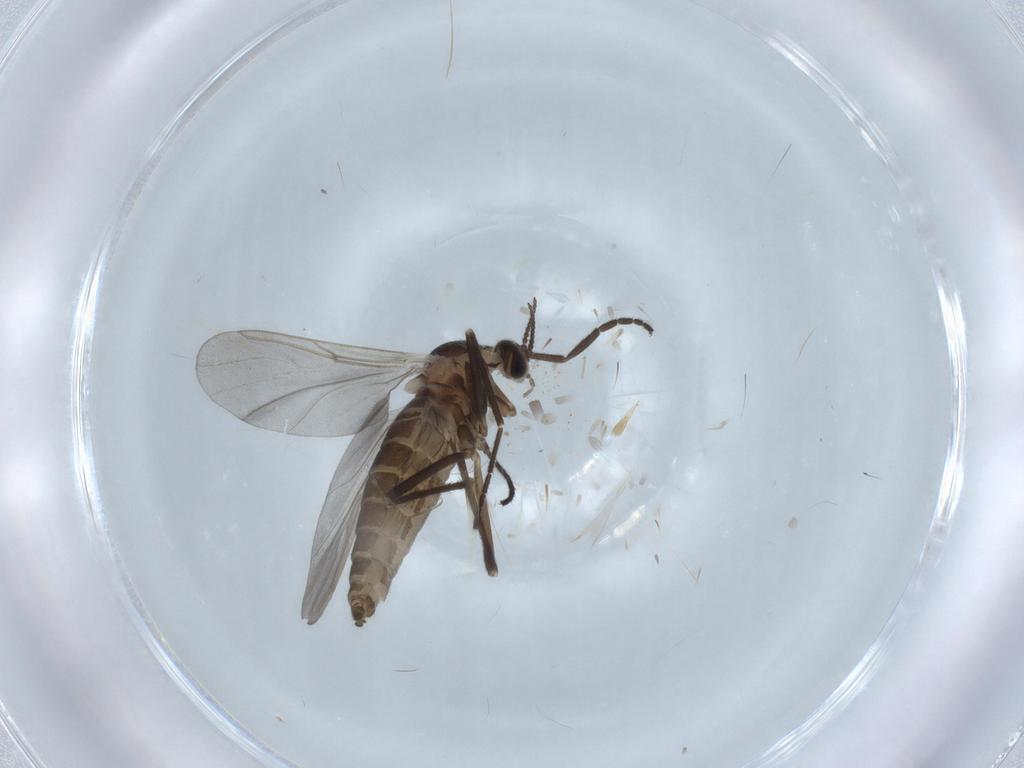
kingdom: Animalia
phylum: Arthropoda
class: Insecta
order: Diptera
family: Cecidomyiidae
